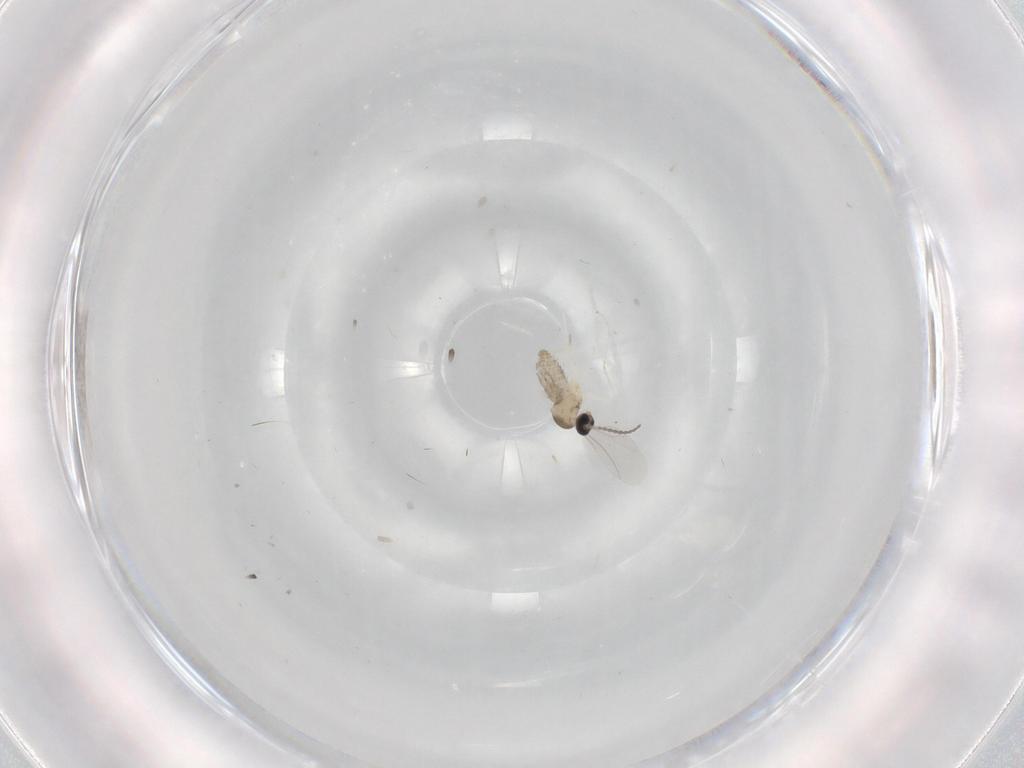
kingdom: Animalia
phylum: Arthropoda
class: Insecta
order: Diptera
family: Cecidomyiidae
